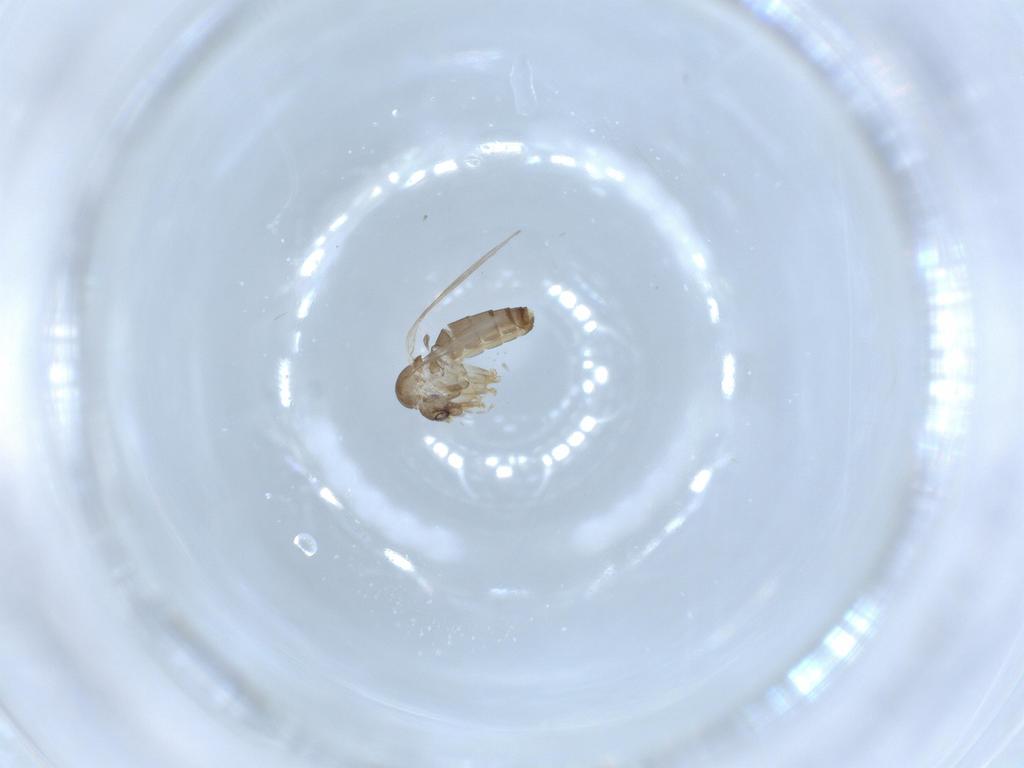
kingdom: Animalia
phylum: Arthropoda
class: Insecta
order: Diptera
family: Psychodidae
